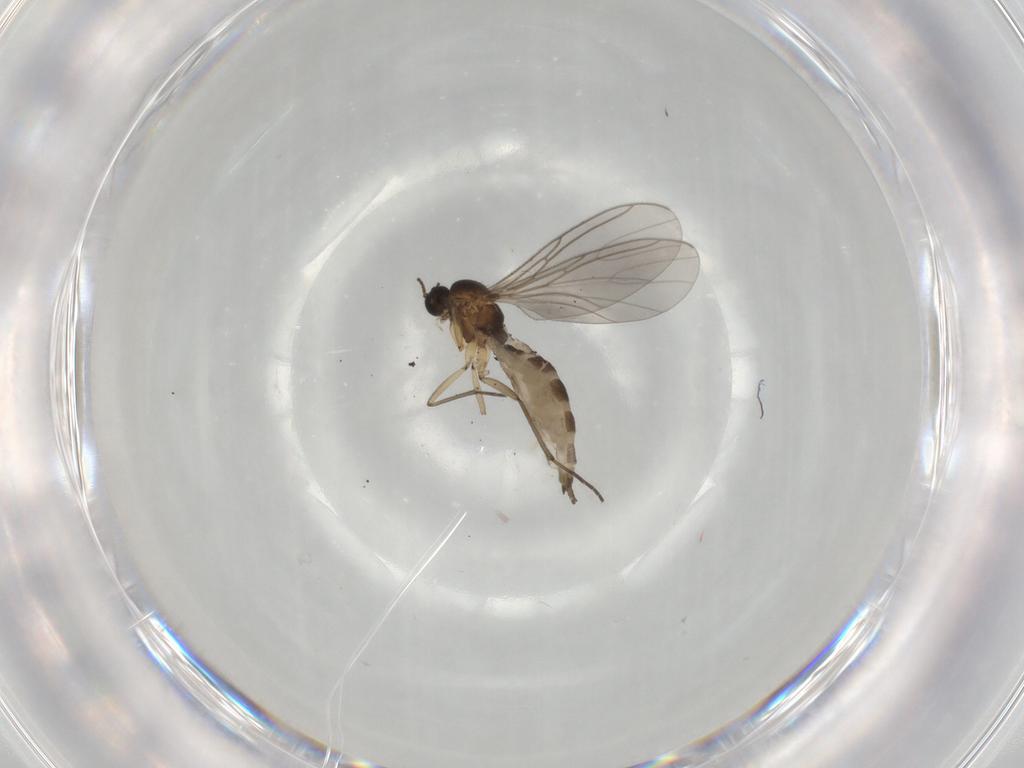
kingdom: Animalia
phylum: Arthropoda
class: Insecta
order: Diptera
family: Sciaridae
